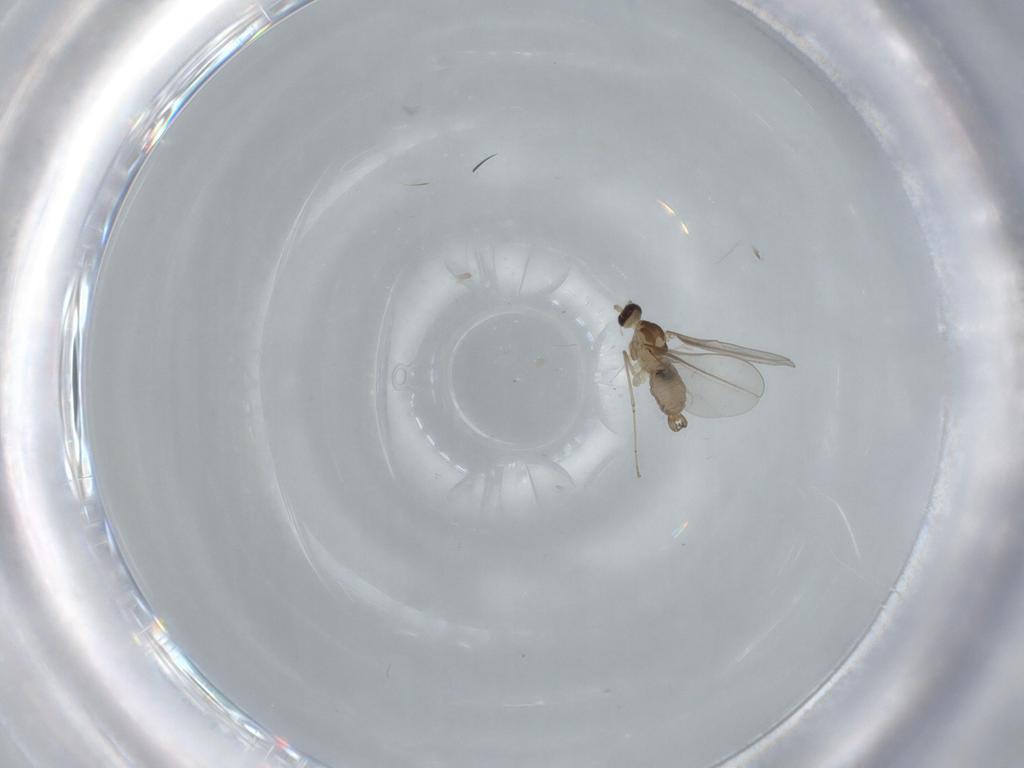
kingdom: Animalia
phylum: Arthropoda
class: Insecta
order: Diptera
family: Cecidomyiidae
